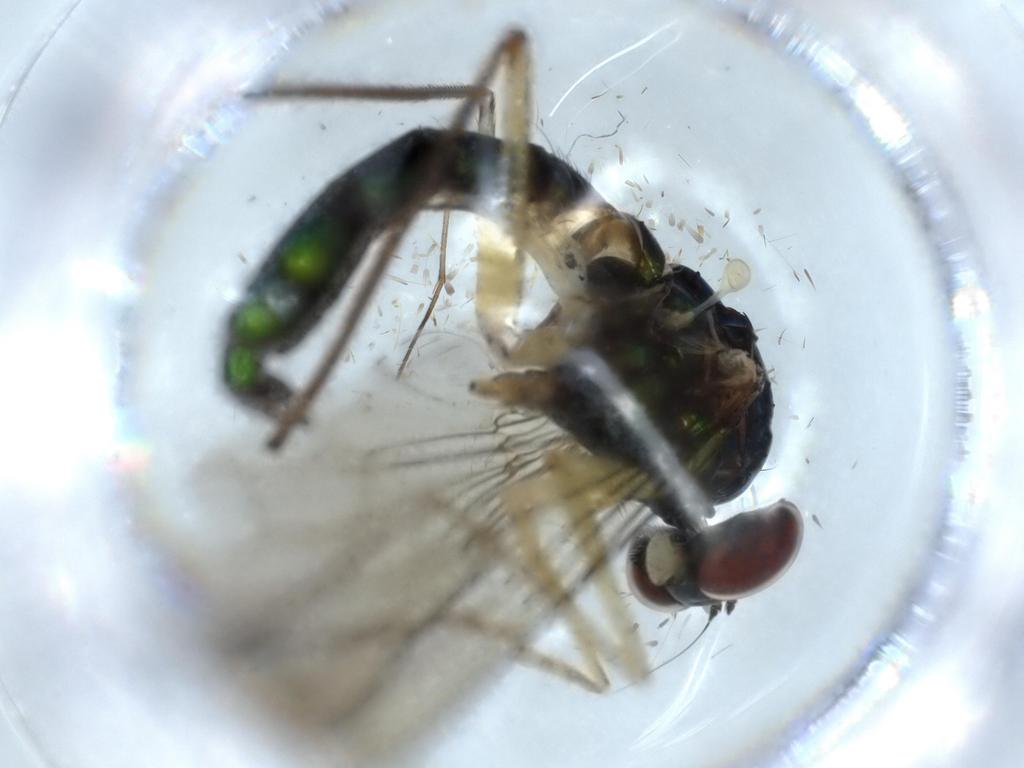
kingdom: Animalia
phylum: Arthropoda
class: Insecta
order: Diptera
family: Dolichopodidae
